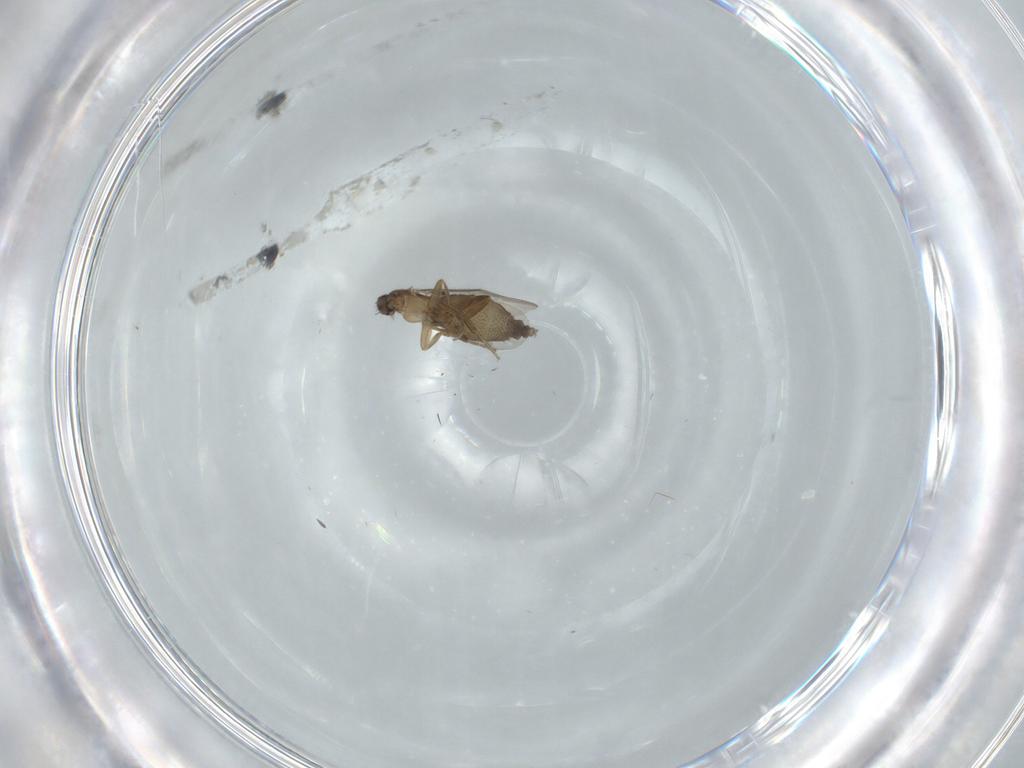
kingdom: Animalia
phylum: Arthropoda
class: Insecta
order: Diptera
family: Phoridae
